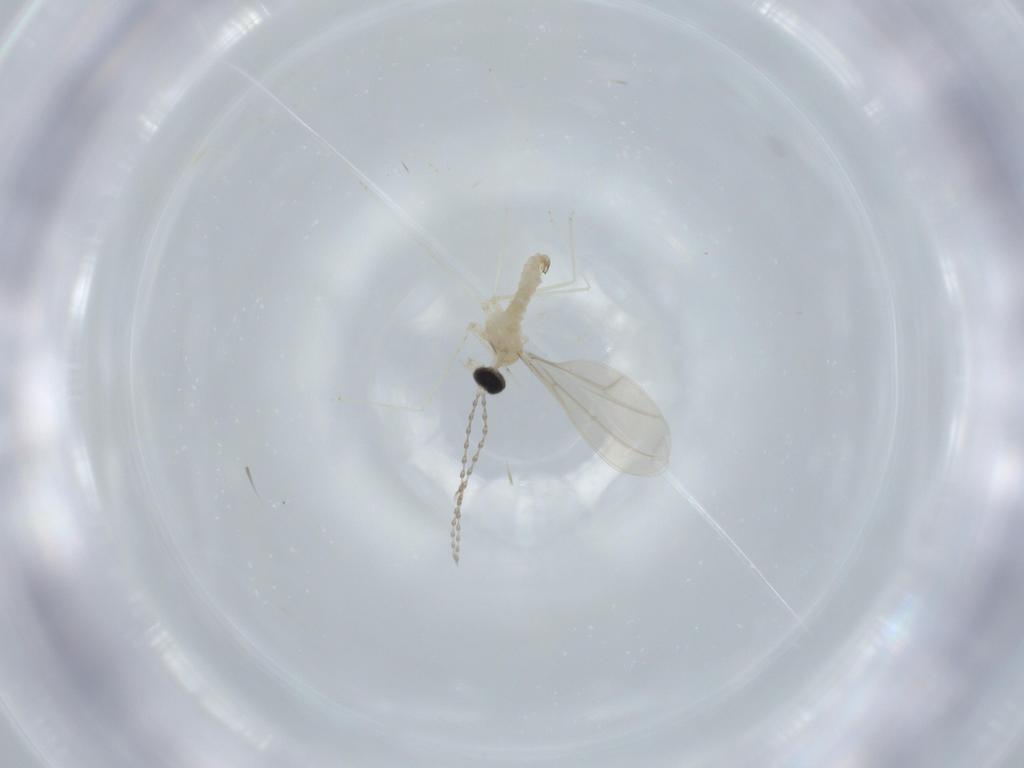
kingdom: Animalia
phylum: Arthropoda
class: Insecta
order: Diptera
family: Cecidomyiidae
